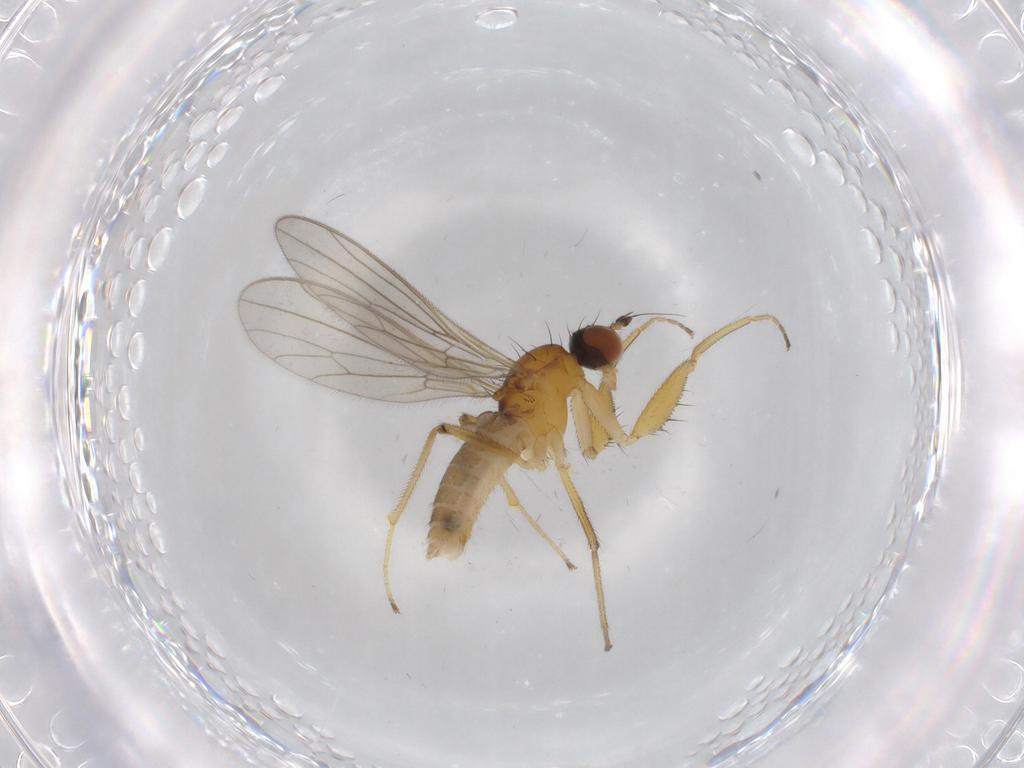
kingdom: Animalia
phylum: Arthropoda
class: Insecta
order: Diptera
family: Empididae
